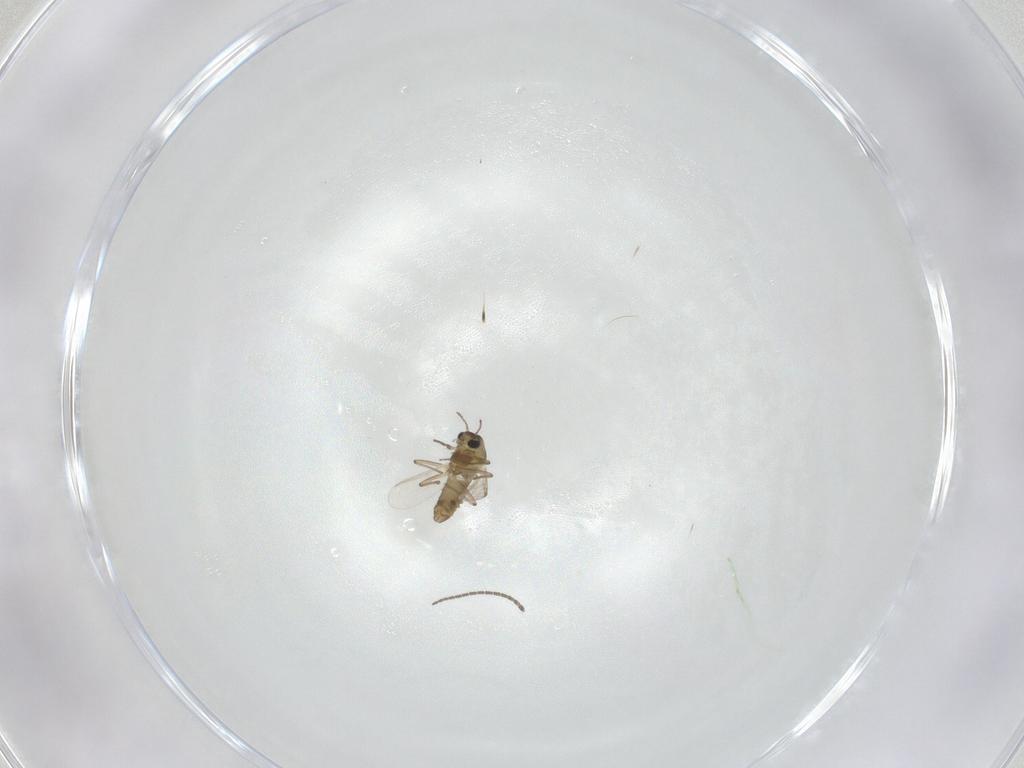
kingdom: Animalia
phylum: Arthropoda
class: Insecta
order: Diptera
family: Chironomidae
